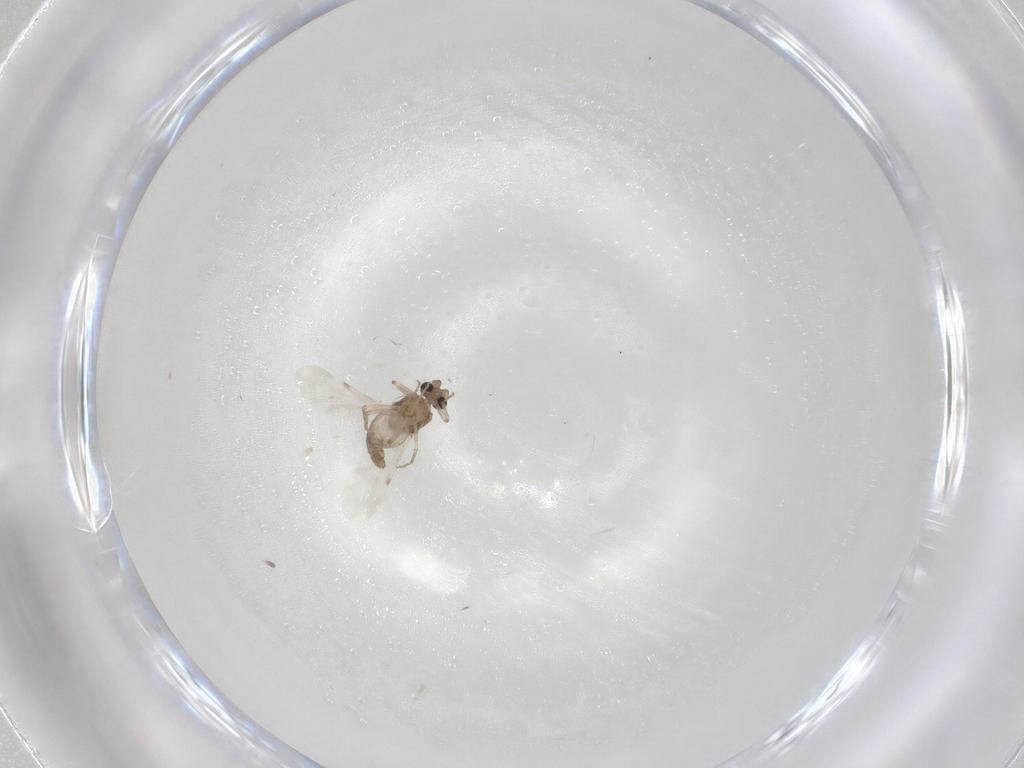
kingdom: Animalia
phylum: Arthropoda
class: Insecta
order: Diptera
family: Ceratopogonidae
